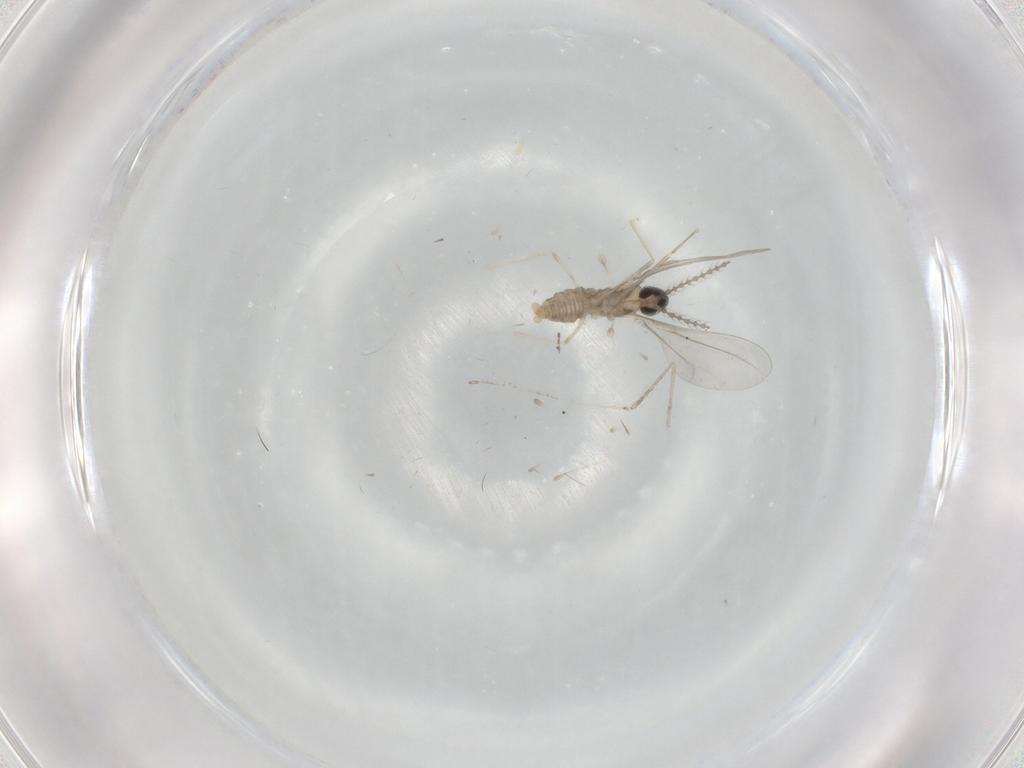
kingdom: Animalia
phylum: Arthropoda
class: Insecta
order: Diptera
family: Cecidomyiidae
